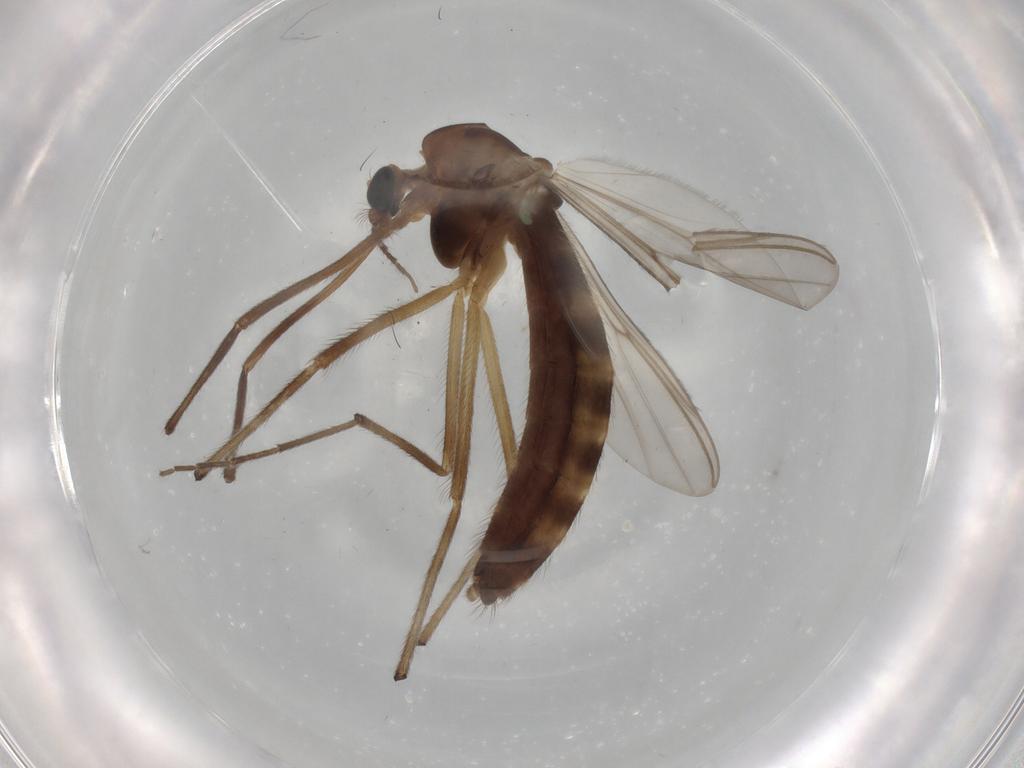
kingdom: Animalia
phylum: Arthropoda
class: Insecta
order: Diptera
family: Chironomidae
